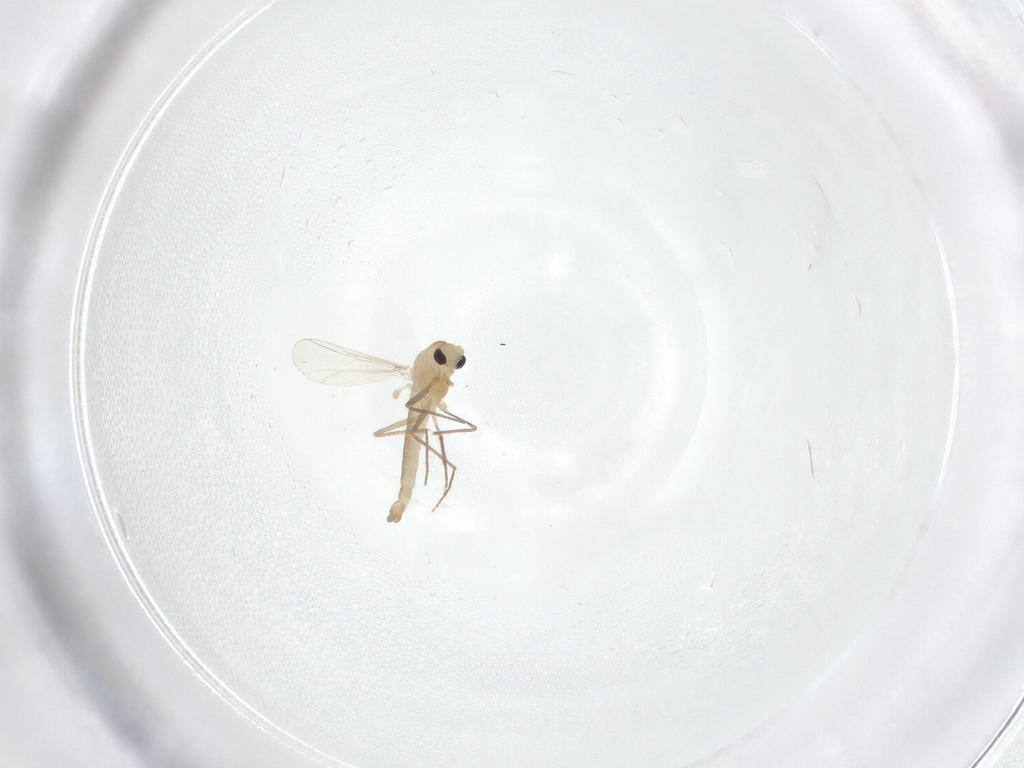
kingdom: Animalia
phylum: Arthropoda
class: Insecta
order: Diptera
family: Chironomidae
